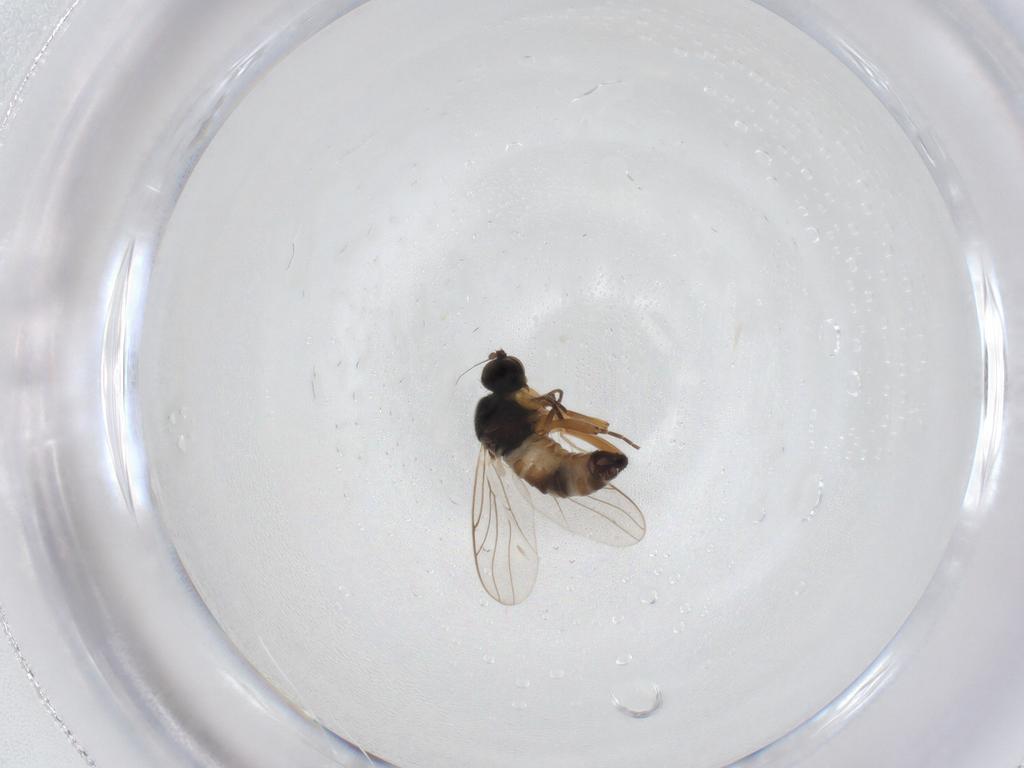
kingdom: Animalia
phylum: Arthropoda
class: Insecta
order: Diptera
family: Hybotidae
